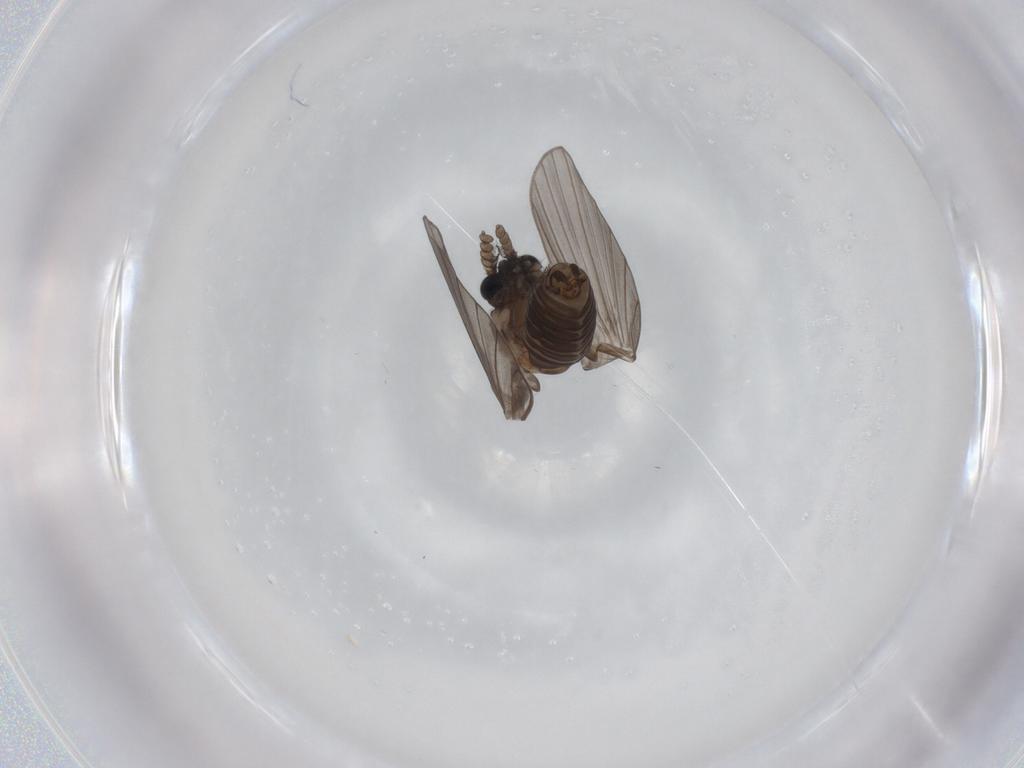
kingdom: Animalia
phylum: Arthropoda
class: Insecta
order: Diptera
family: Psychodidae
